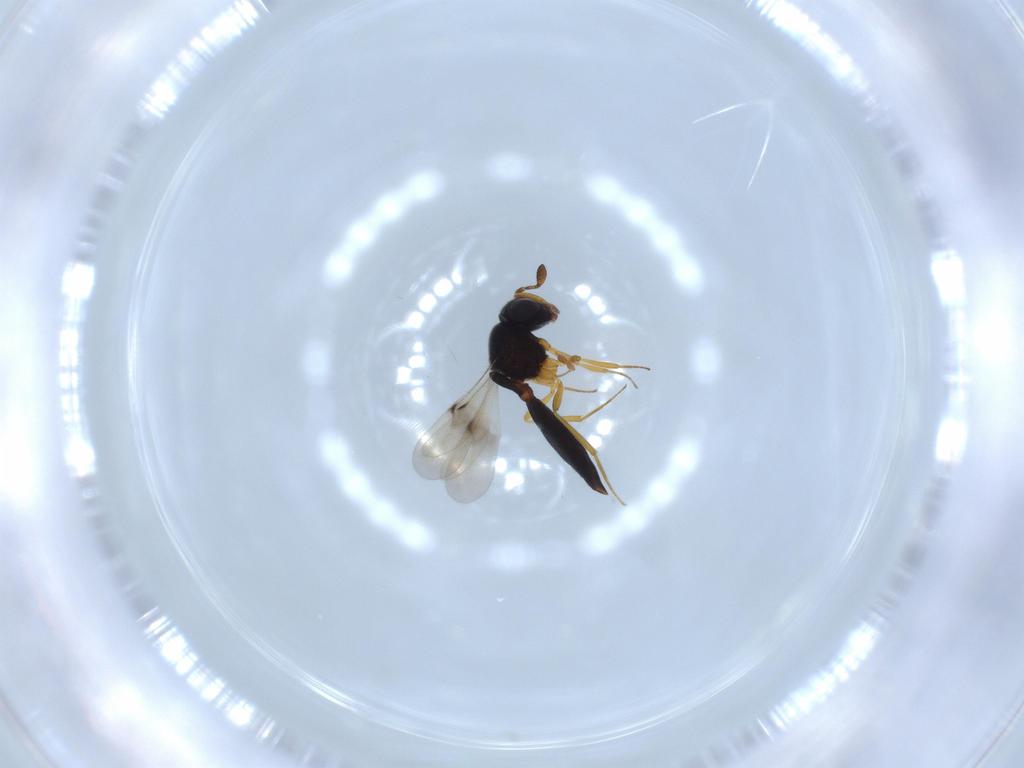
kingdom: Animalia
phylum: Arthropoda
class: Insecta
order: Hymenoptera
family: Scelionidae
